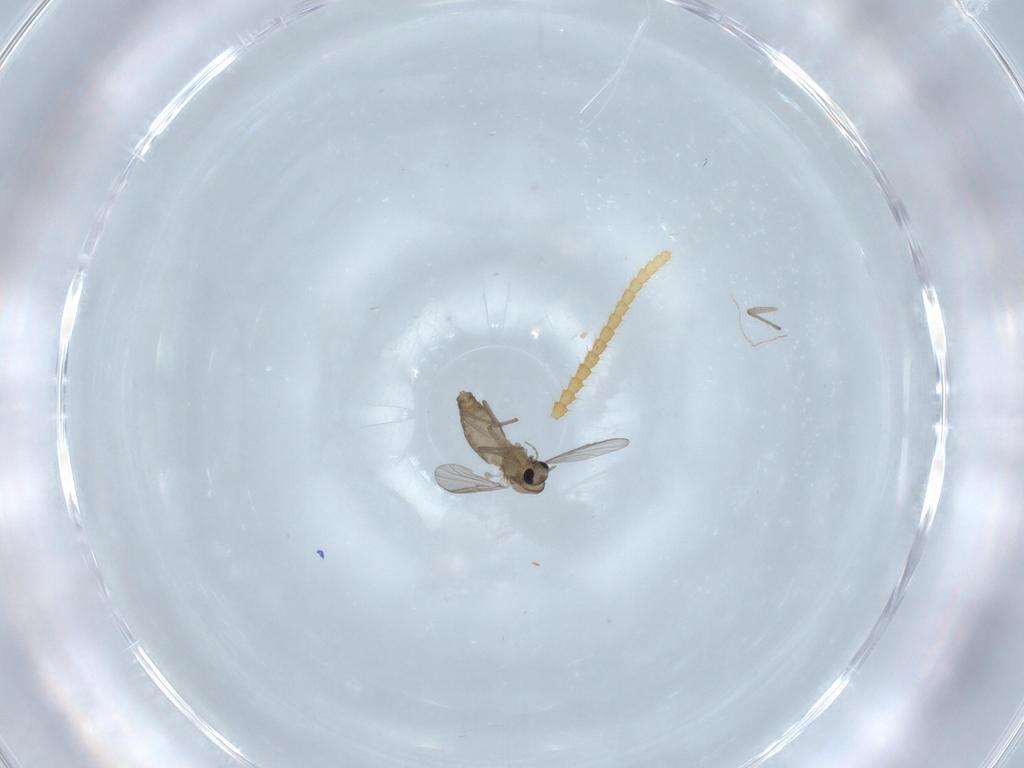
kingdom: Animalia
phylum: Arthropoda
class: Insecta
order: Diptera
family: Chironomidae
